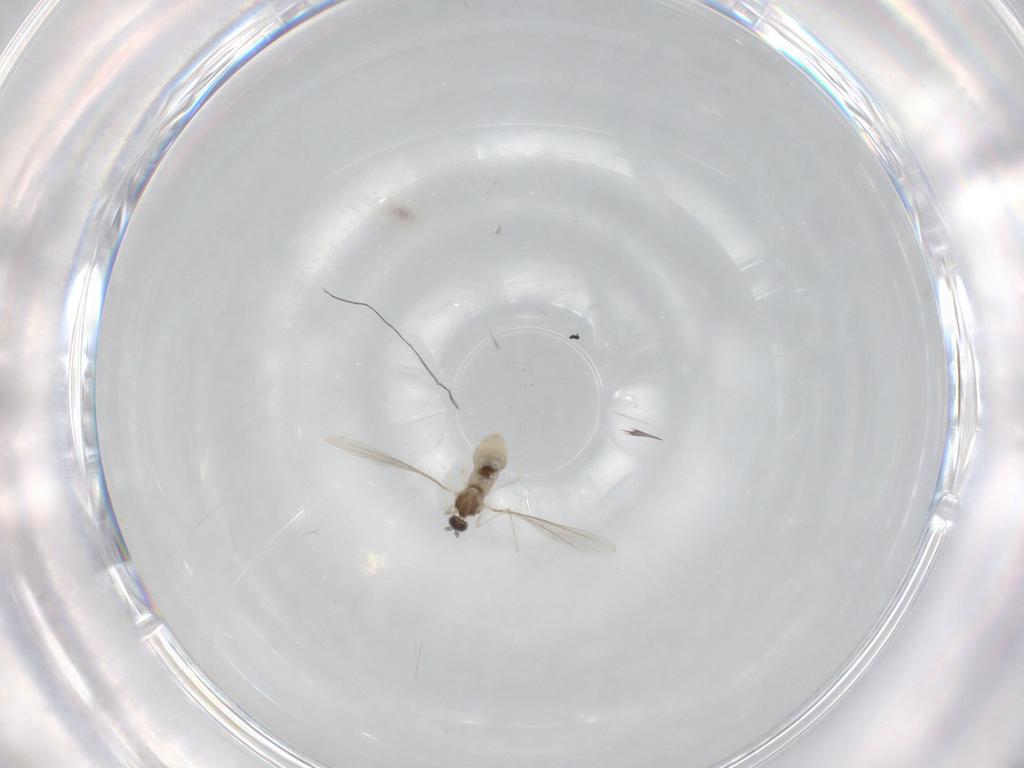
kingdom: Animalia
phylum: Arthropoda
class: Insecta
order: Diptera
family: Cecidomyiidae
